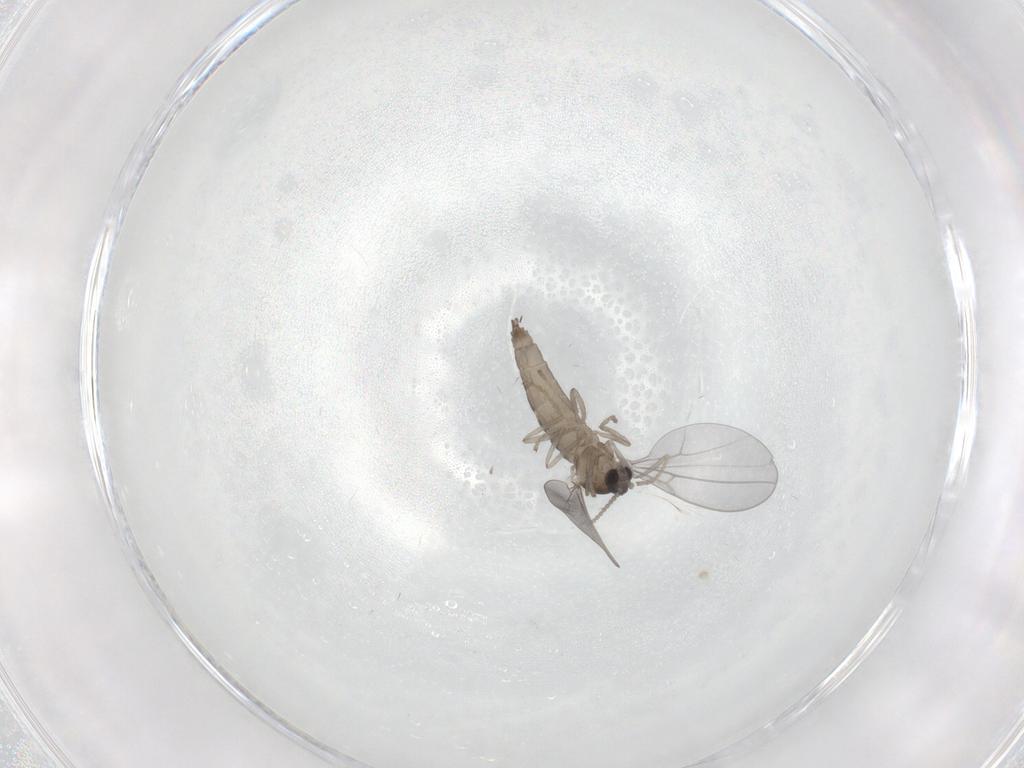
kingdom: Animalia
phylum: Arthropoda
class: Insecta
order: Diptera
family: Cecidomyiidae
